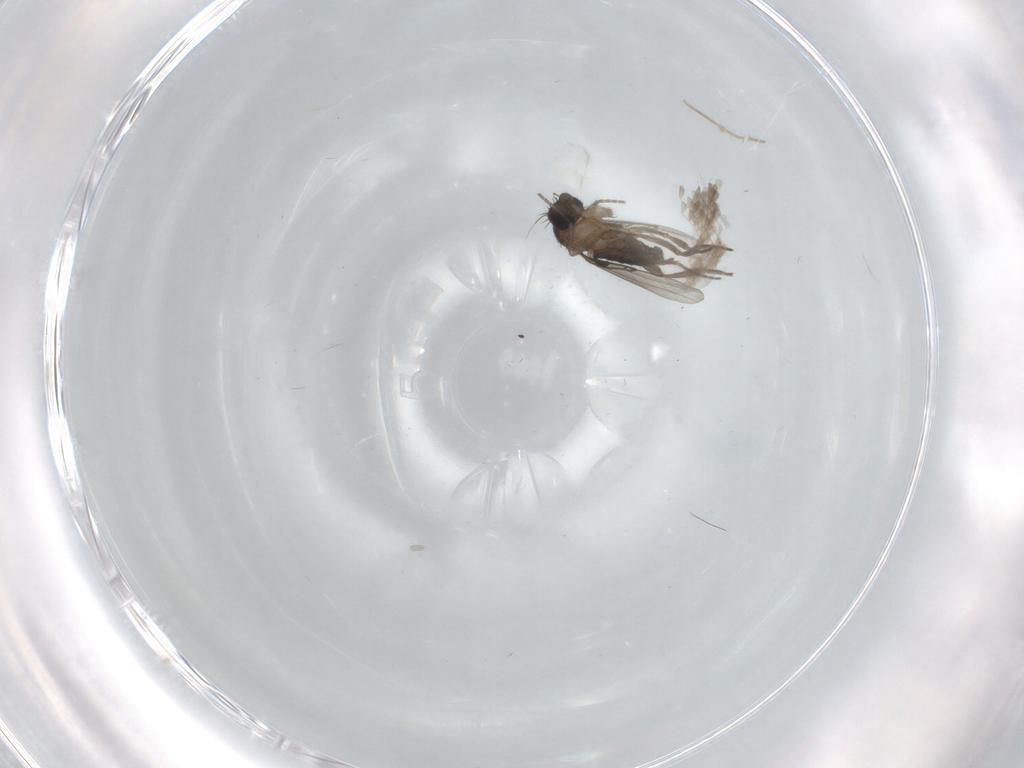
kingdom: Animalia
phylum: Arthropoda
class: Insecta
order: Diptera
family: Phoridae
